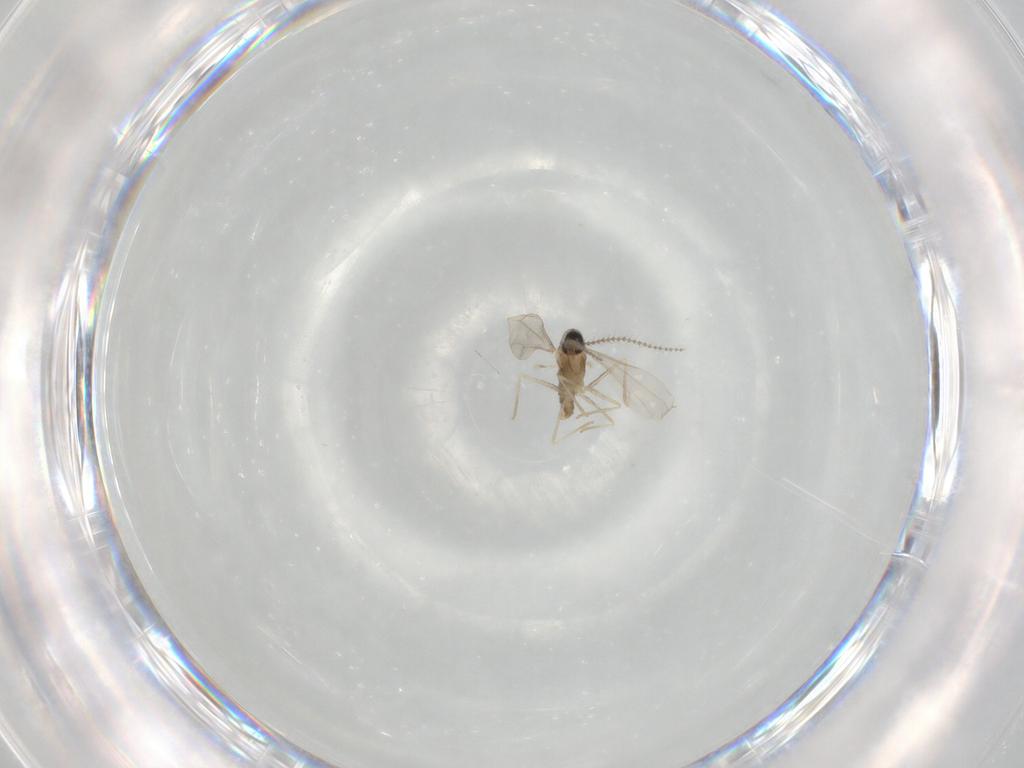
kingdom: Animalia
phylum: Arthropoda
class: Insecta
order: Diptera
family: Cecidomyiidae
